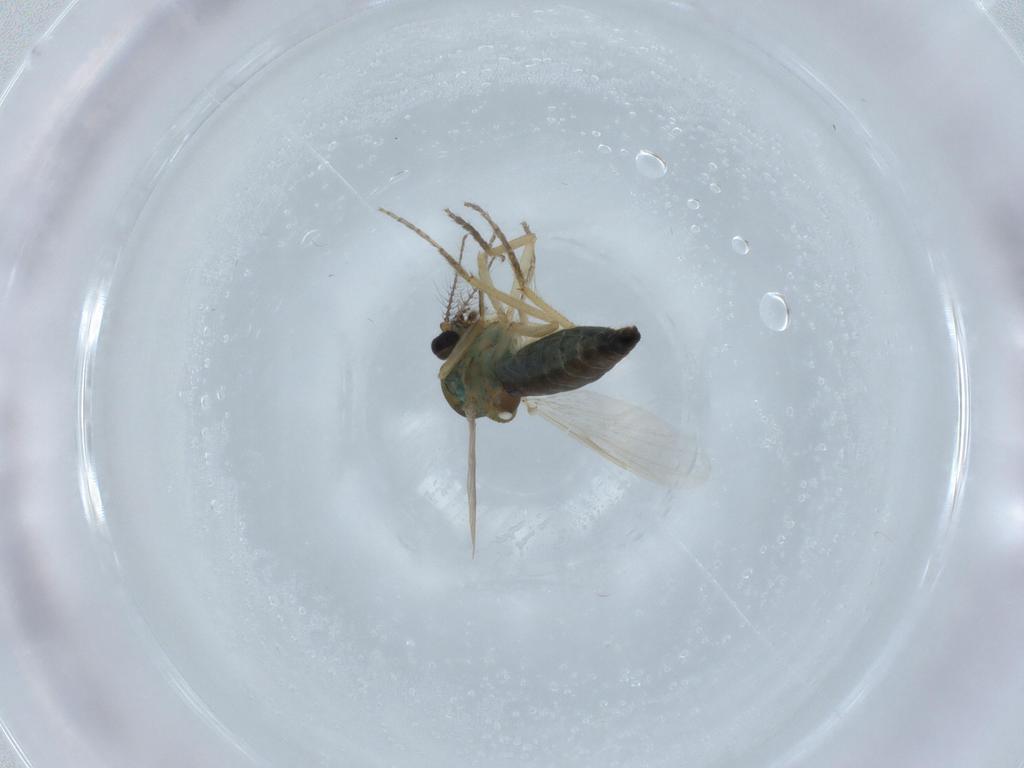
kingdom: Animalia
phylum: Arthropoda
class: Insecta
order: Diptera
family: Ceratopogonidae
